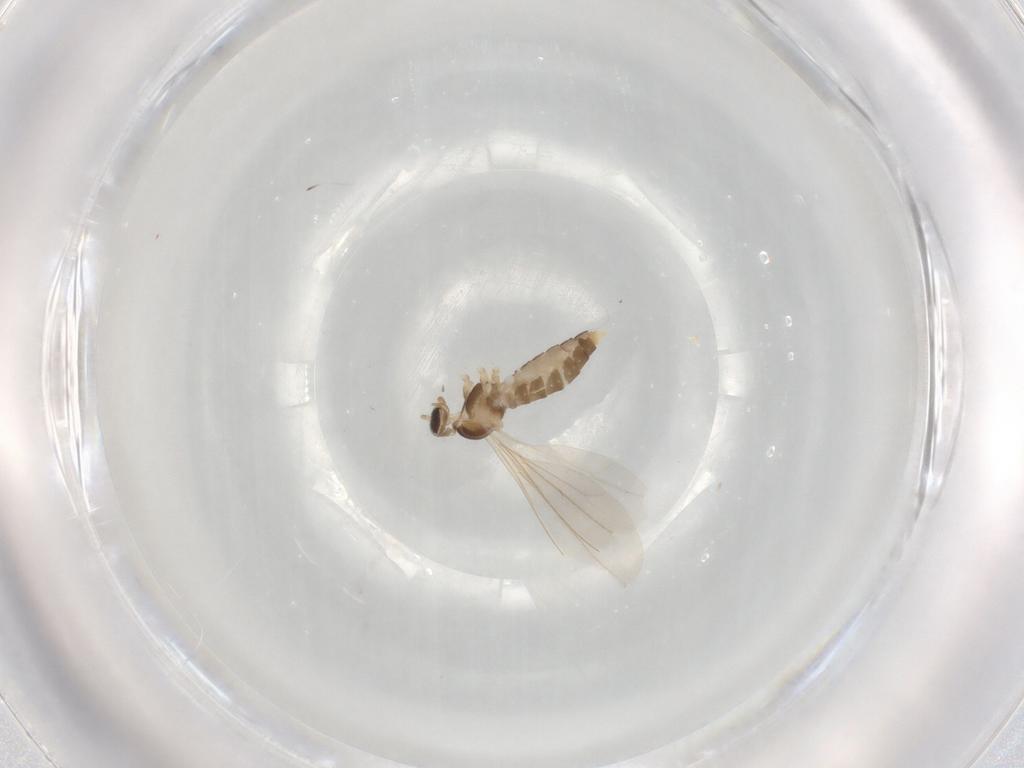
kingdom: Animalia
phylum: Arthropoda
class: Insecta
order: Diptera
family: Cecidomyiidae
